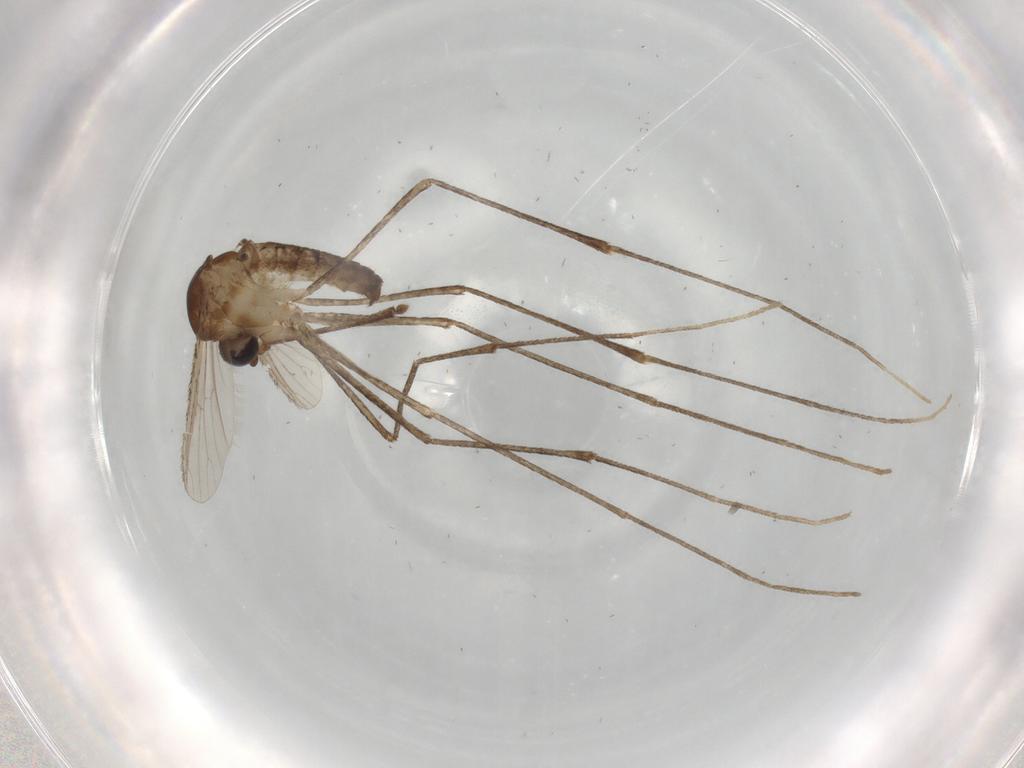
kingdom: Animalia
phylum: Arthropoda
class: Insecta
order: Diptera
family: Culicidae
